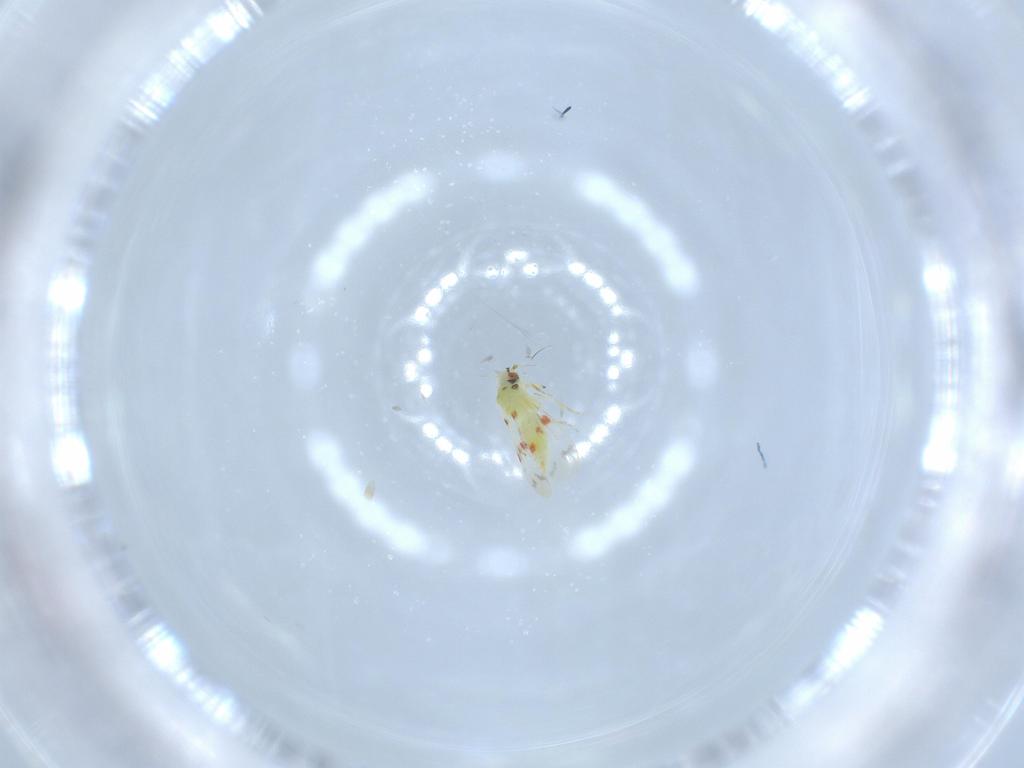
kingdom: Animalia
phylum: Arthropoda
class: Insecta
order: Hemiptera
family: Aleyrodidae
